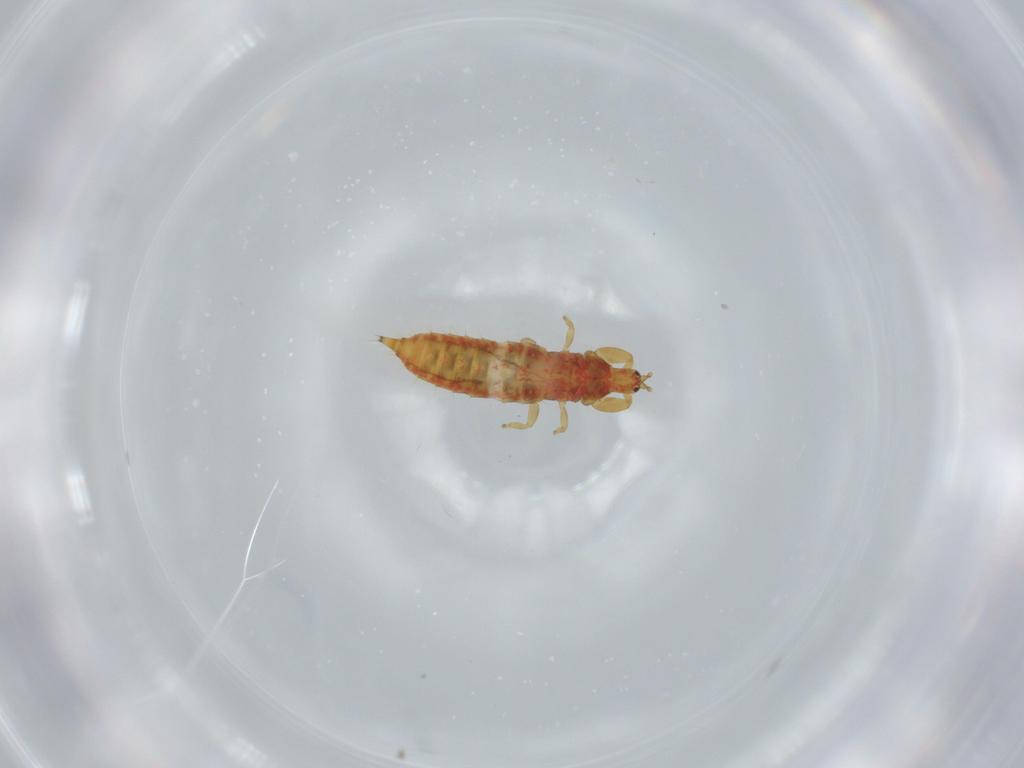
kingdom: Animalia
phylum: Arthropoda
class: Insecta
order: Thysanoptera
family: Phlaeothripidae
